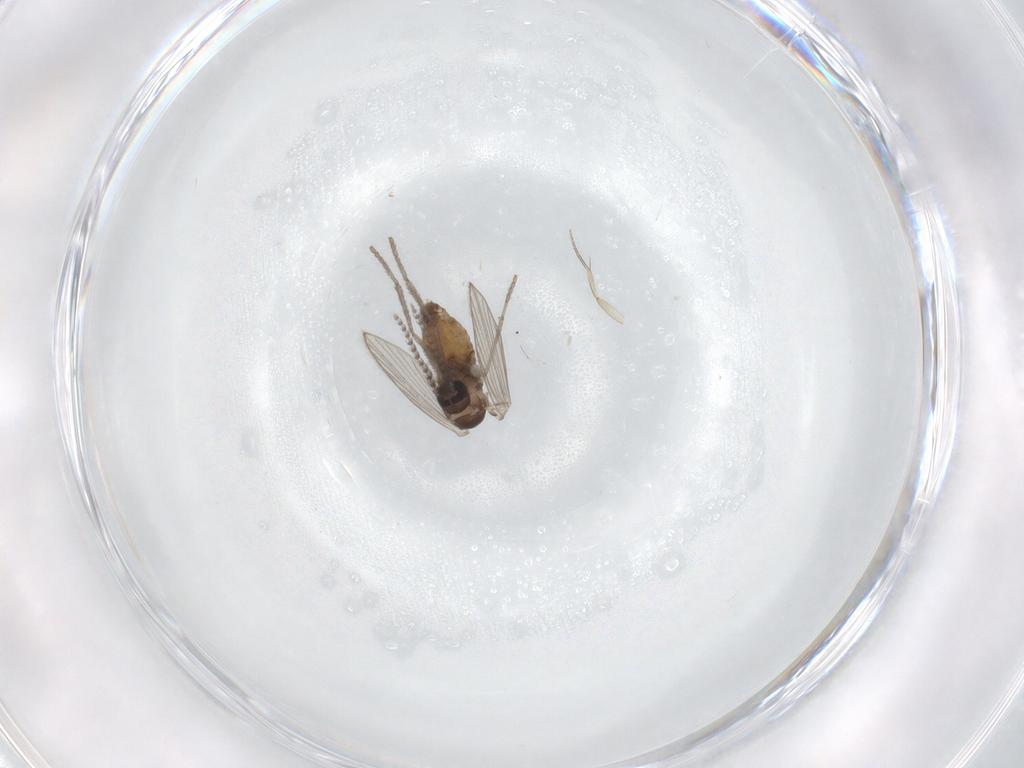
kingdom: Animalia
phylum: Arthropoda
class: Insecta
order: Diptera
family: Psychodidae
